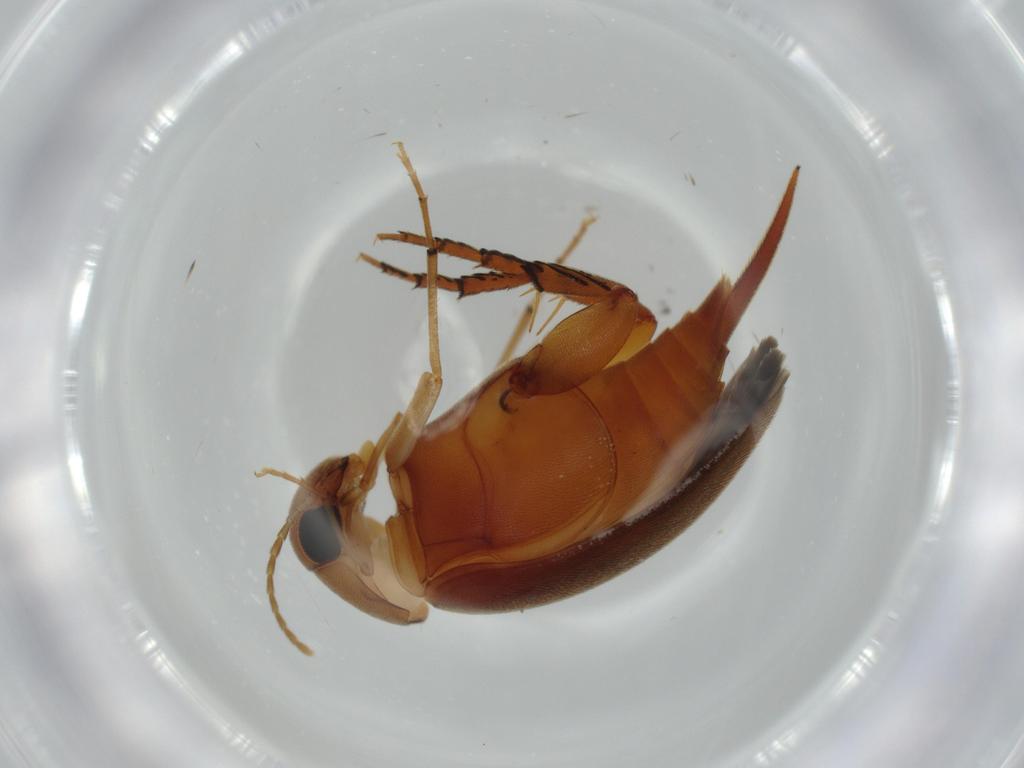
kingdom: Animalia
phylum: Arthropoda
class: Insecta
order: Coleoptera
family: Mordellidae
